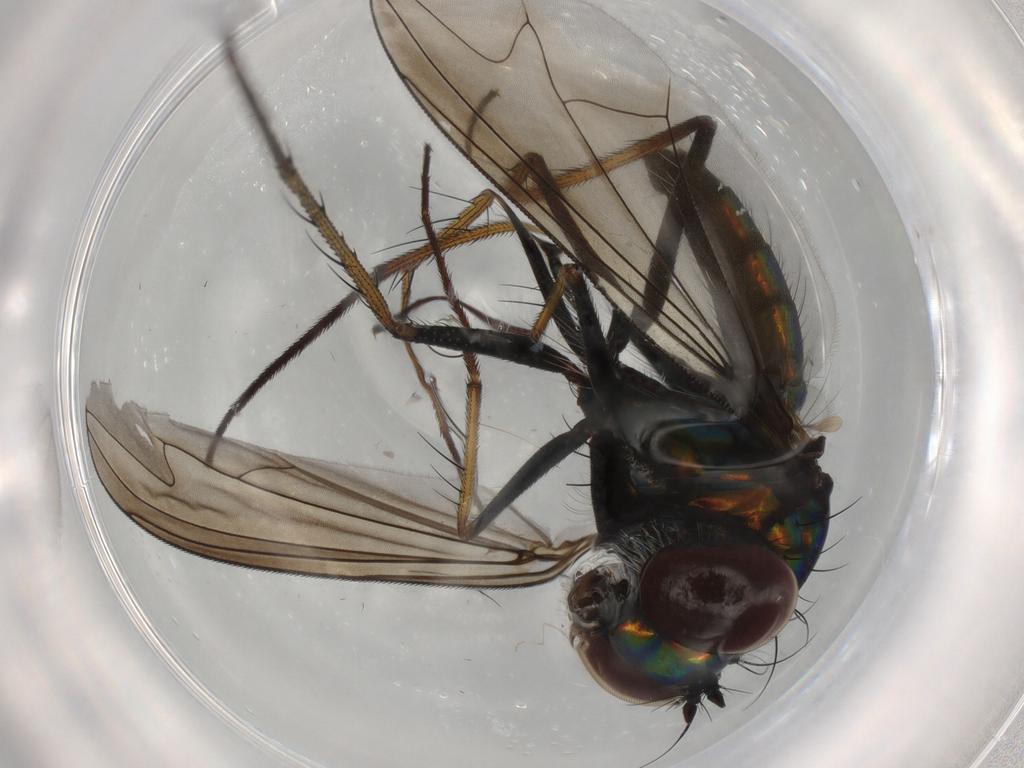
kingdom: Animalia
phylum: Arthropoda
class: Insecta
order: Diptera
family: Dolichopodidae
